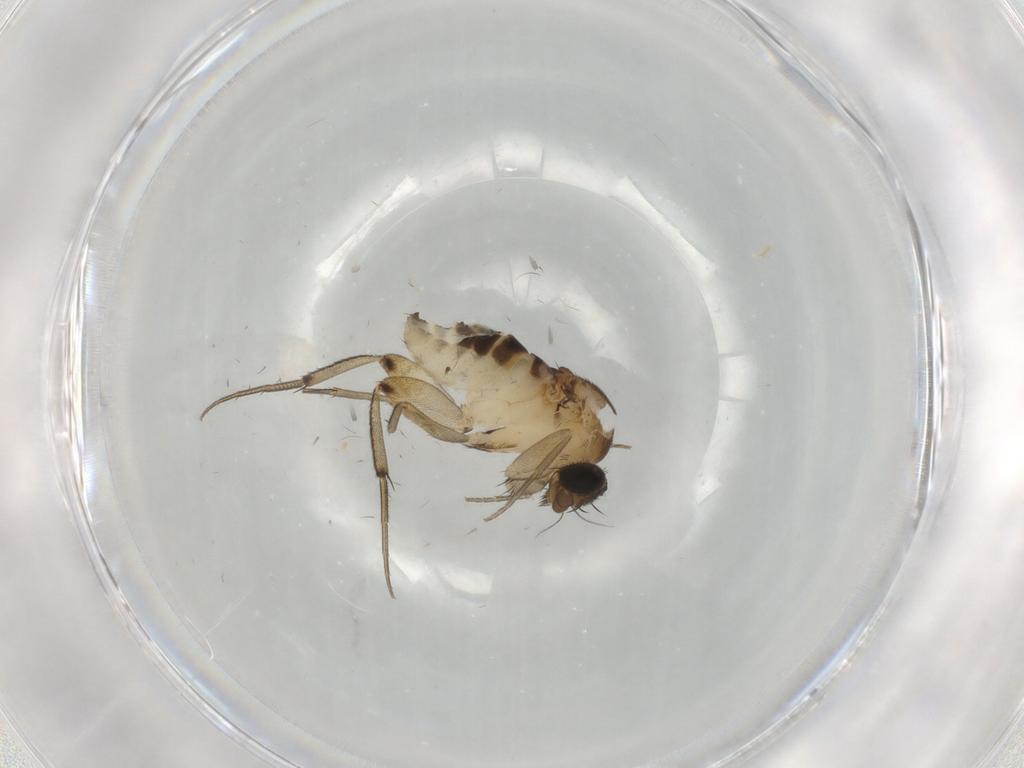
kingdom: Animalia
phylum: Arthropoda
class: Insecta
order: Diptera
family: Phoridae
